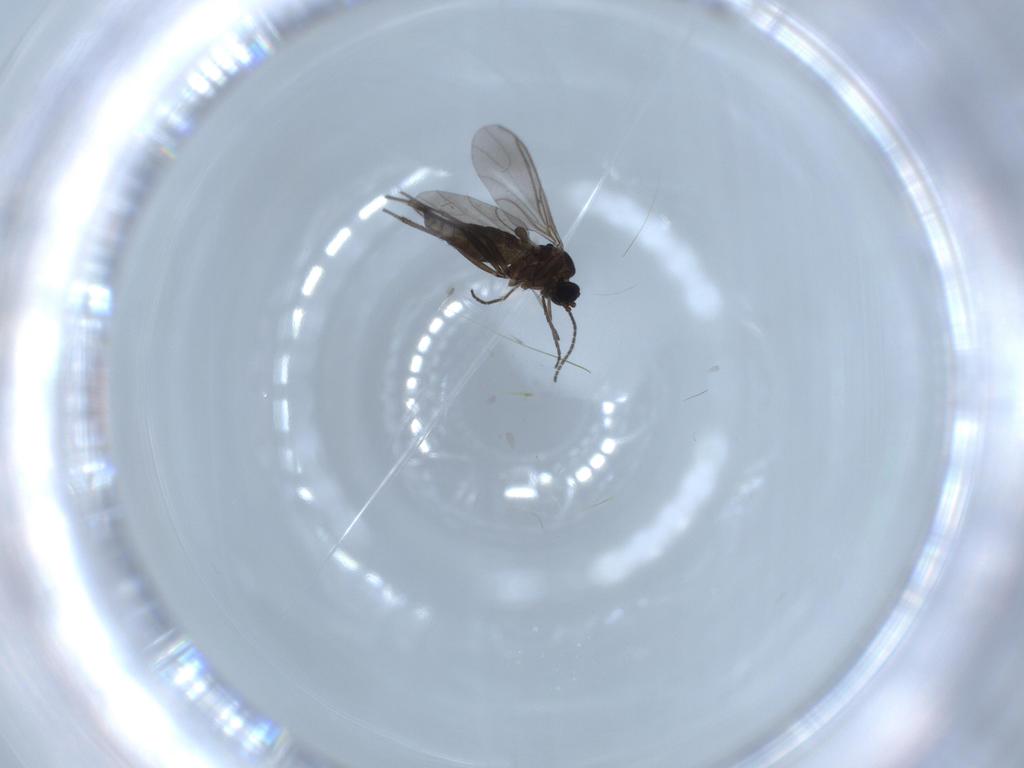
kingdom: Animalia
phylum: Arthropoda
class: Insecta
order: Diptera
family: Sciaridae
